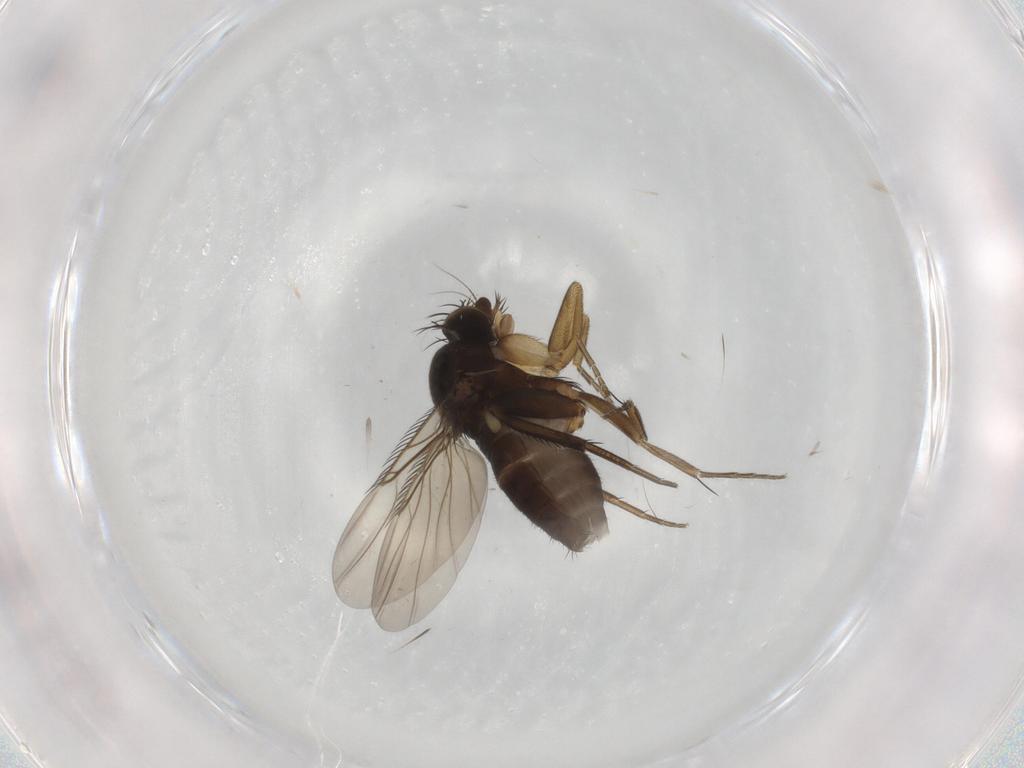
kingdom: Animalia
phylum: Arthropoda
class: Insecta
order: Diptera
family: Phoridae
